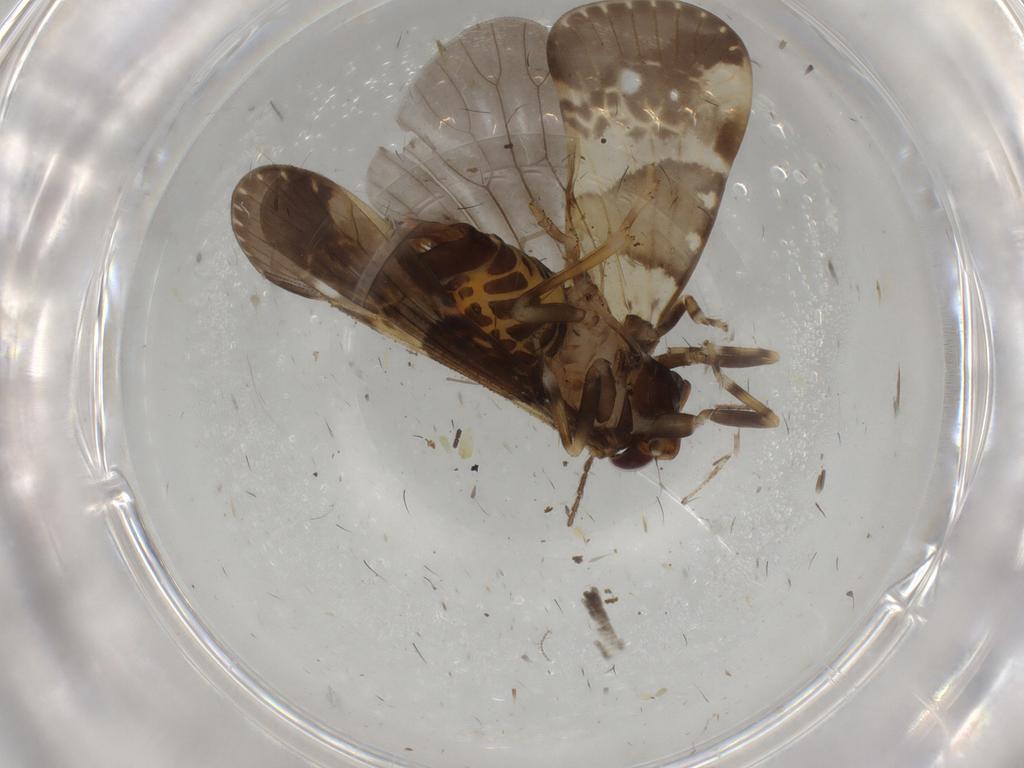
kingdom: Animalia
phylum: Arthropoda
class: Insecta
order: Hemiptera
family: Cixiidae
